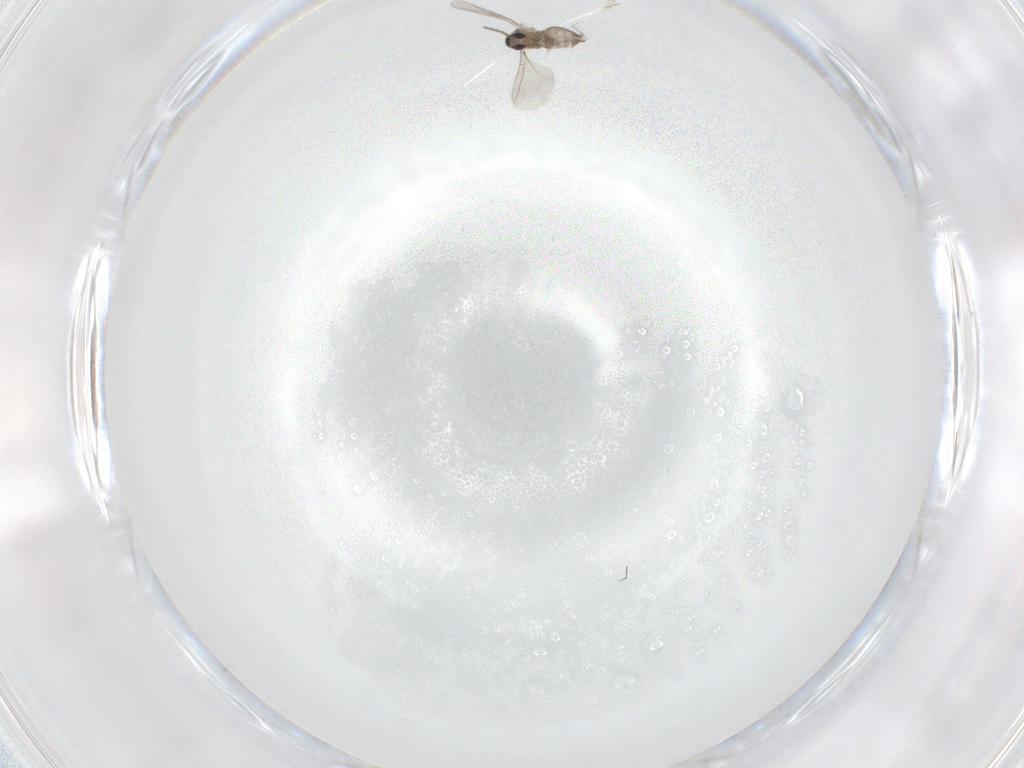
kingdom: Animalia
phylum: Arthropoda
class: Insecta
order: Diptera
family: Cecidomyiidae
